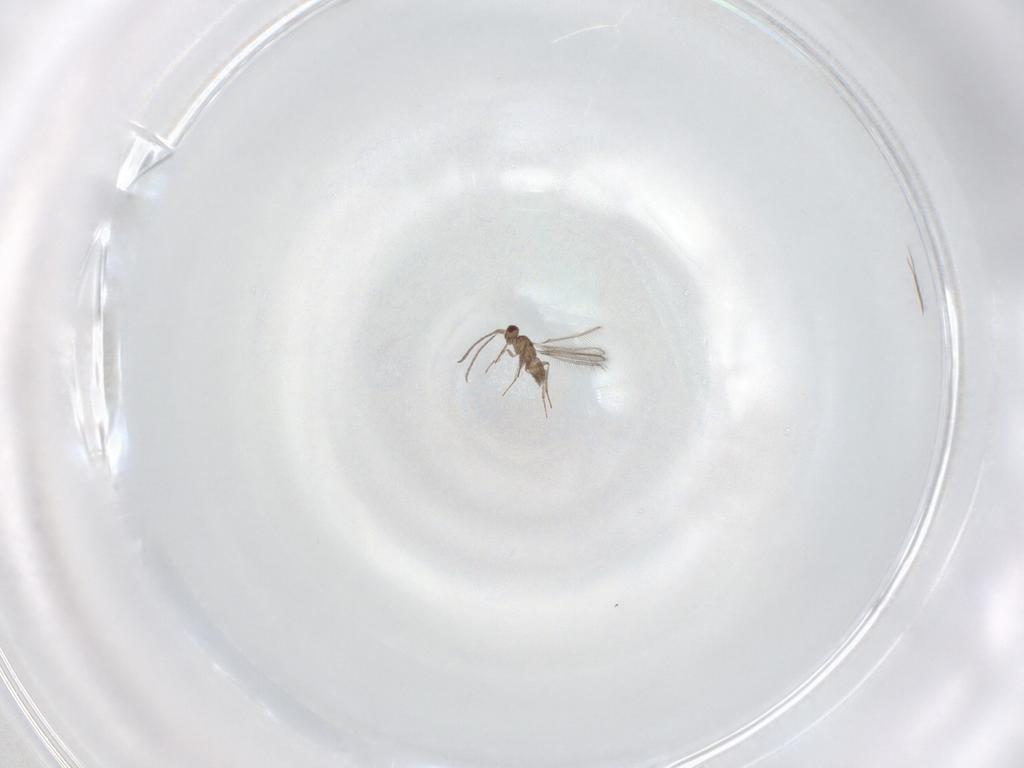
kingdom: Animalia
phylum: Arthropoda
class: Insecta
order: Hymenoptera
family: Mymaridae
